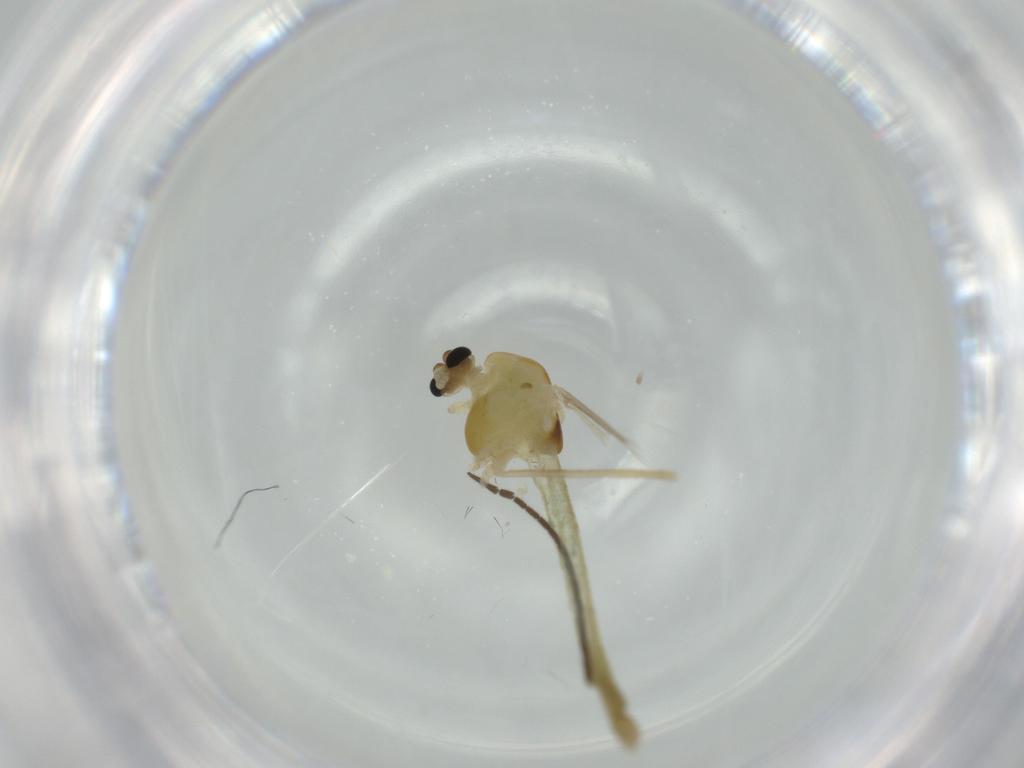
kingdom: Animalia
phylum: Arthropoda
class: Insecta
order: Diptera
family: Chironomidae
